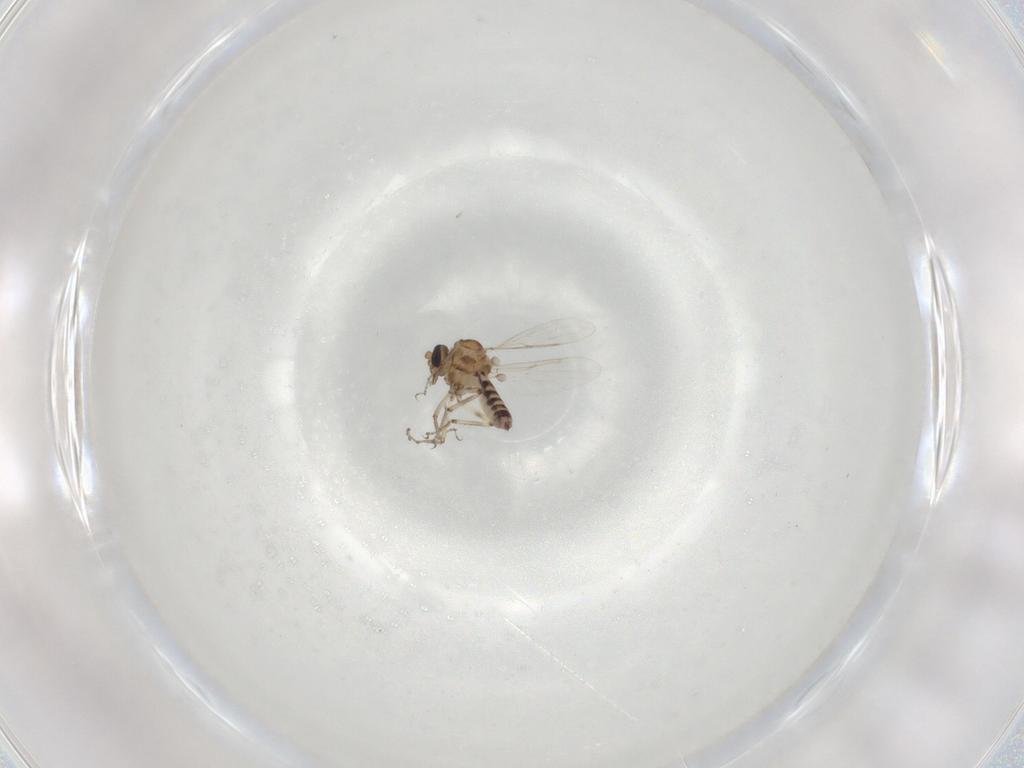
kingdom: Animalia
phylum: Arthropoda
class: Insecta
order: Diptera
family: Ceratopogonidae
